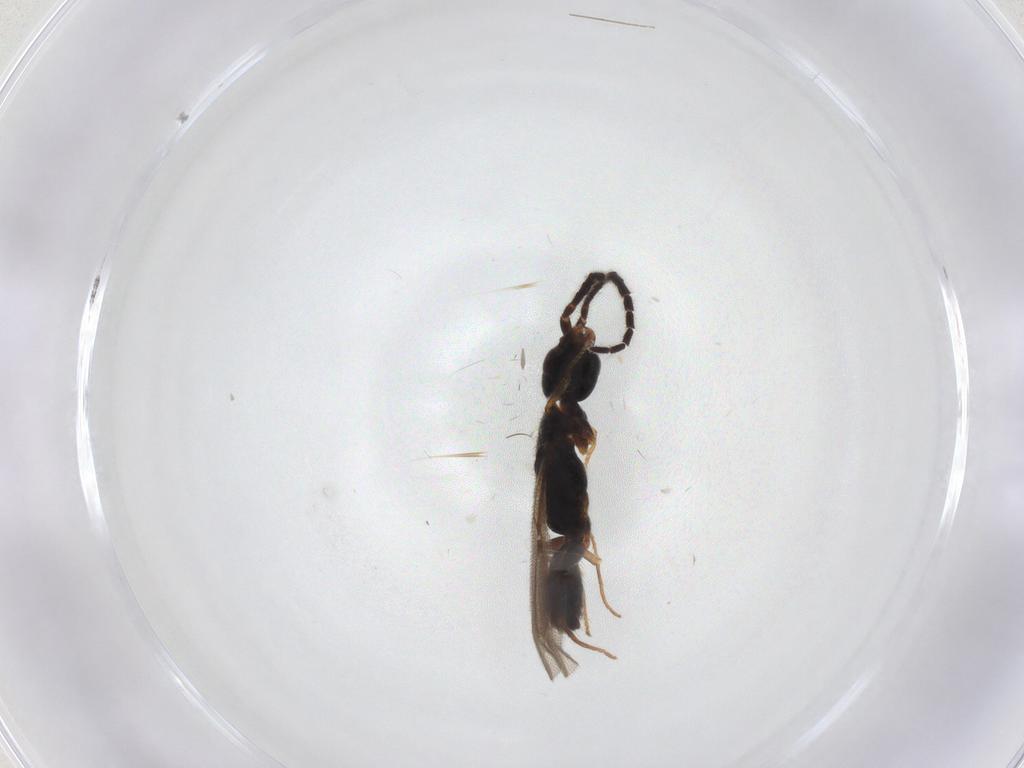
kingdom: Animalia
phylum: Arthropoda
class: Insecta
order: Hymenoptera
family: Bethylidae
